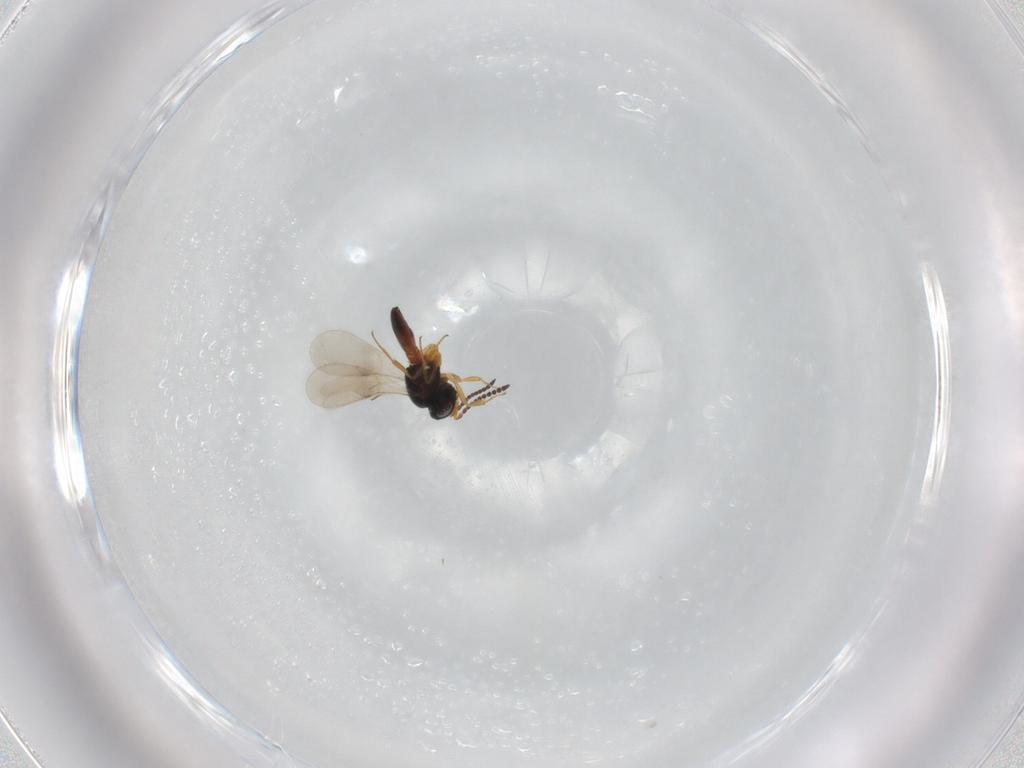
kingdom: Animalia
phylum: Arthropoda
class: Insecta
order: Hymenoptera
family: Scelionidae
